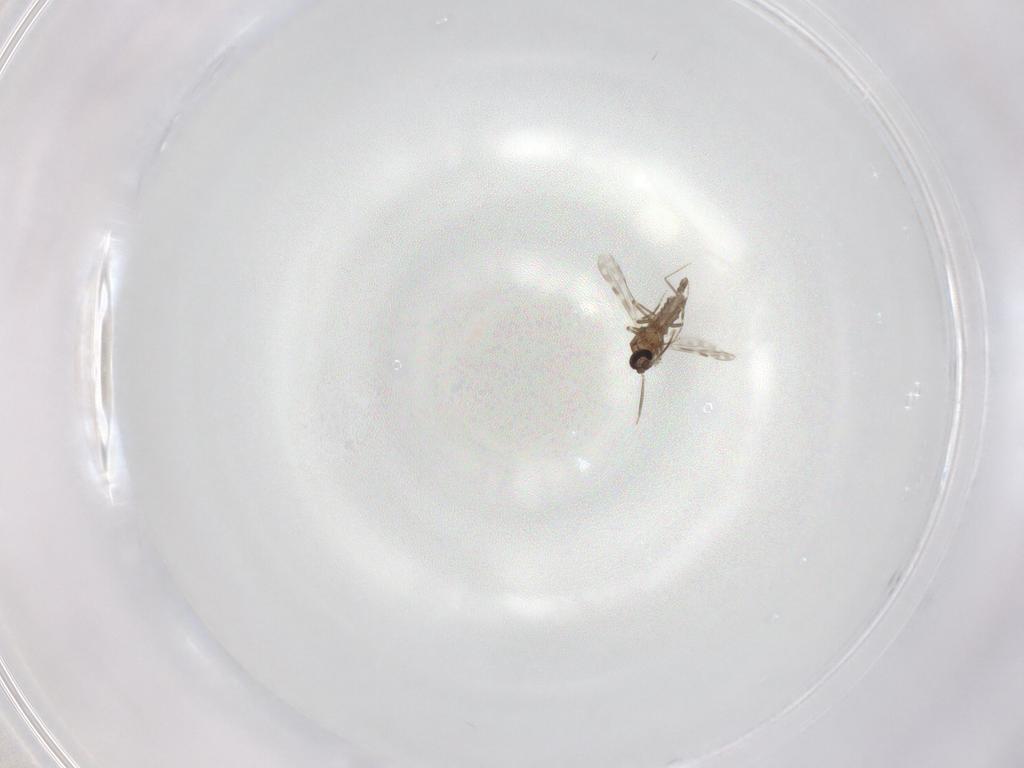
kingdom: Animalia
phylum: Arthropoda
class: Insecta
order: Diptera
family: Ceratopogonidae
